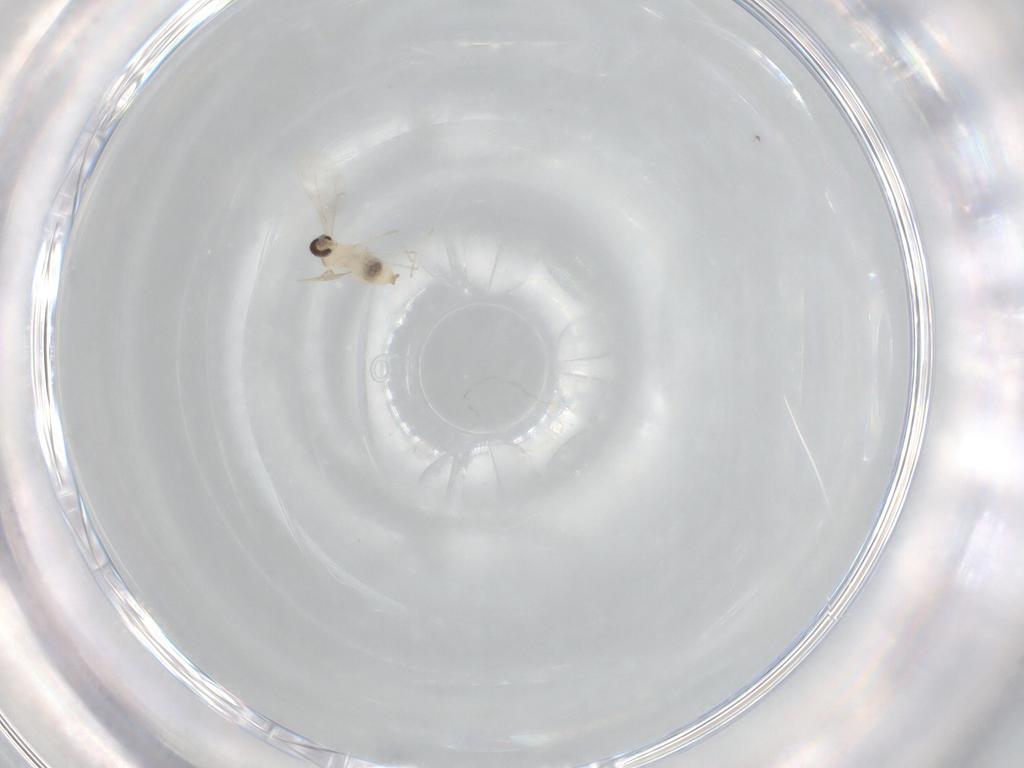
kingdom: Animalia
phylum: Arthropoda
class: Insecta
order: Diptera
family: Cecidomyiidae
